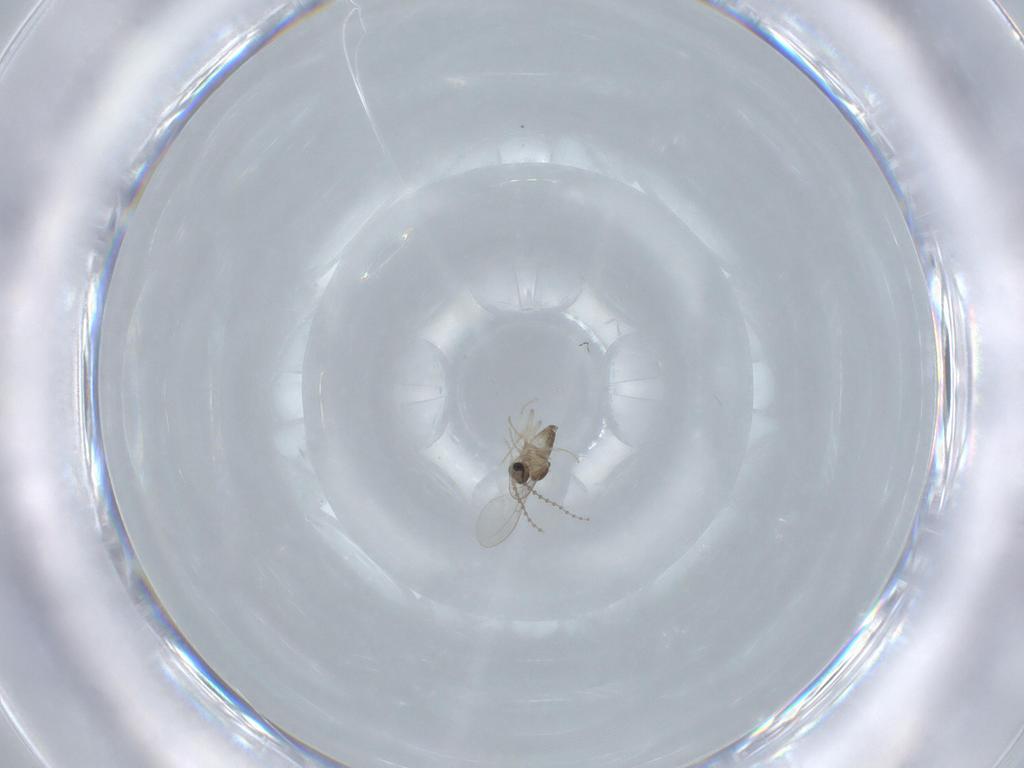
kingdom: Animalia
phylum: Arthropoda
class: Insecta
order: Diptera
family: Cecidomyiidae
